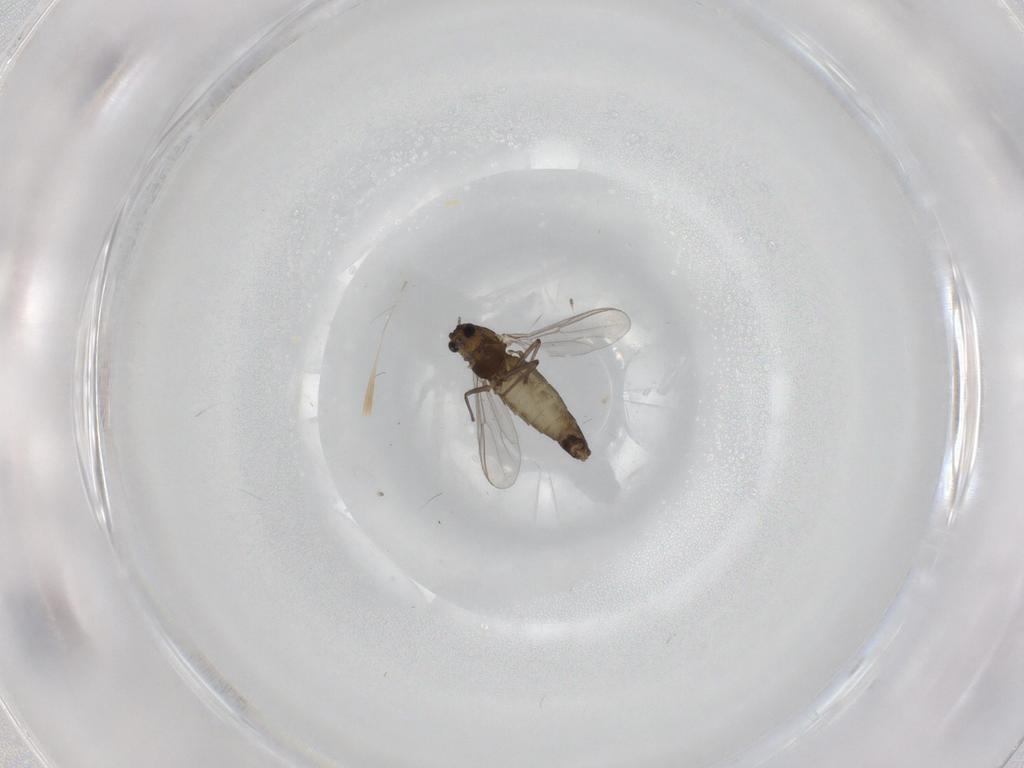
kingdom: Animalia
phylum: Arthropoda
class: Insecta
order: Diptera
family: Chironomidae
